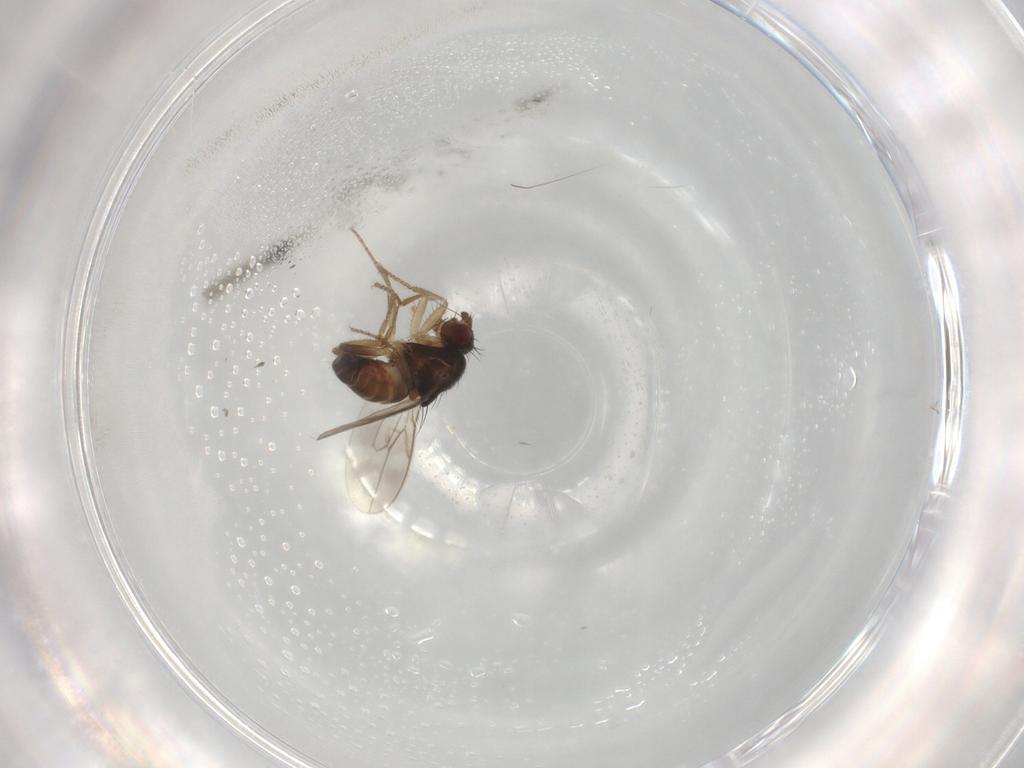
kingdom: Animalia
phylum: Arthropoda
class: Insecta
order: Diptera
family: Sphaeroceridae
